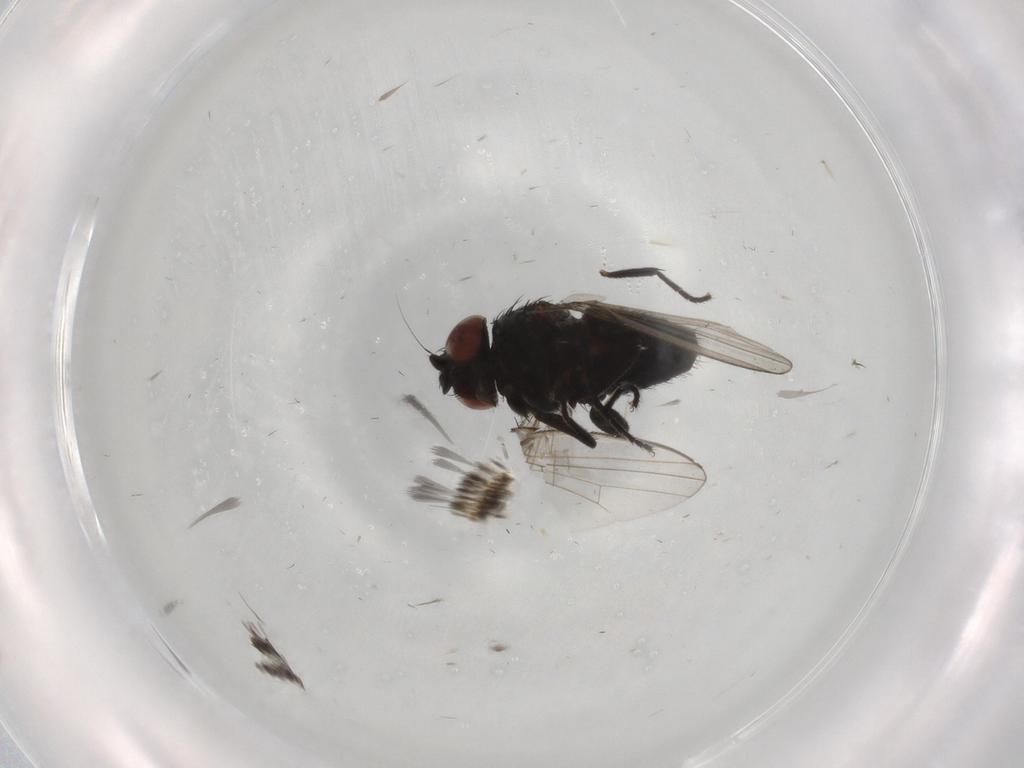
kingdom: Animalia
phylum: Arthropoda
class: Insecta
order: Diptera
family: Milichiidae
